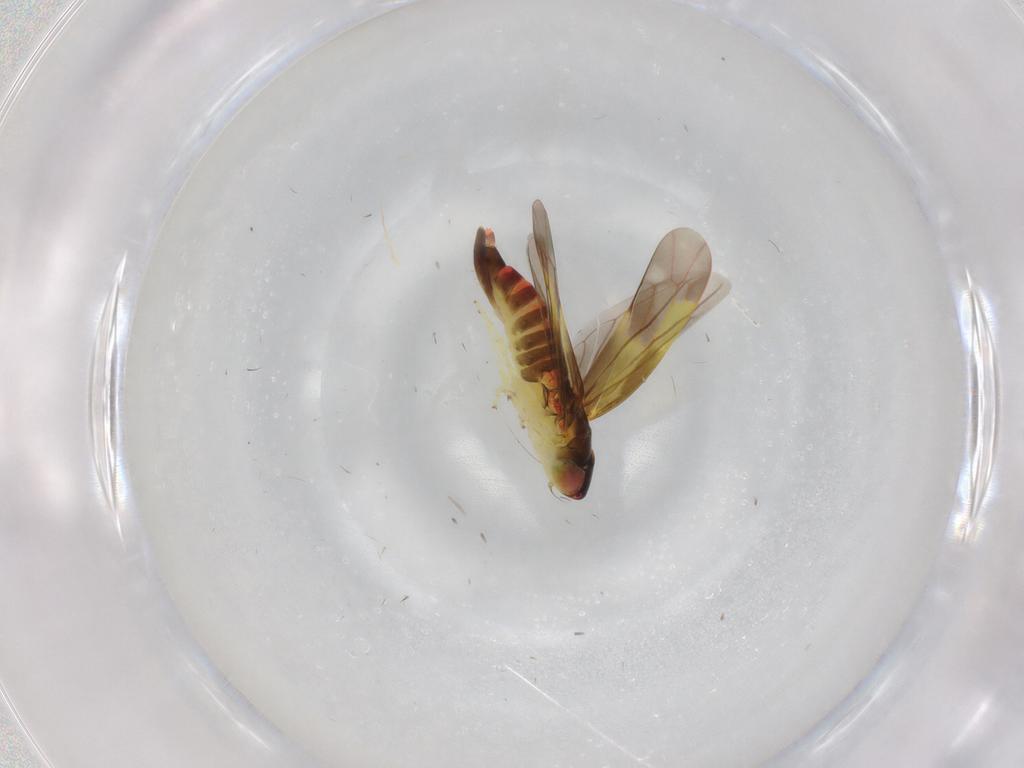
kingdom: Animalia
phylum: Arthropoda
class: Insecta
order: Hemiptera
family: Cicadellidae
